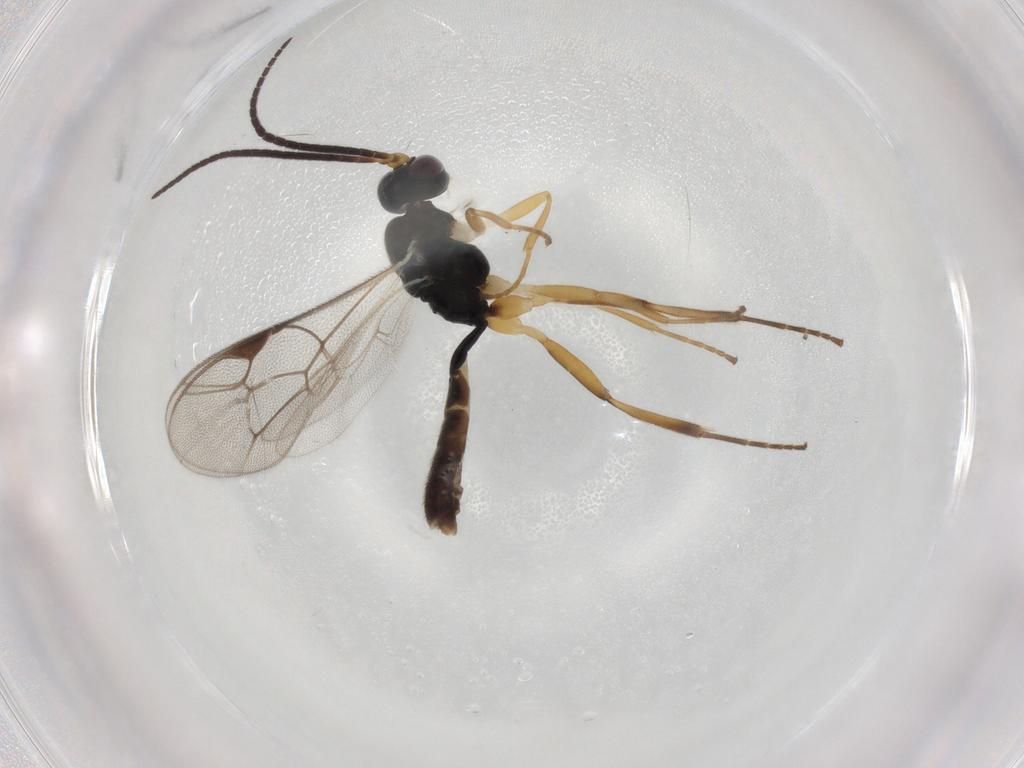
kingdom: Animalia
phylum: Arthropoda
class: Insecta
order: Hymenoptera
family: Ichneumonidae
